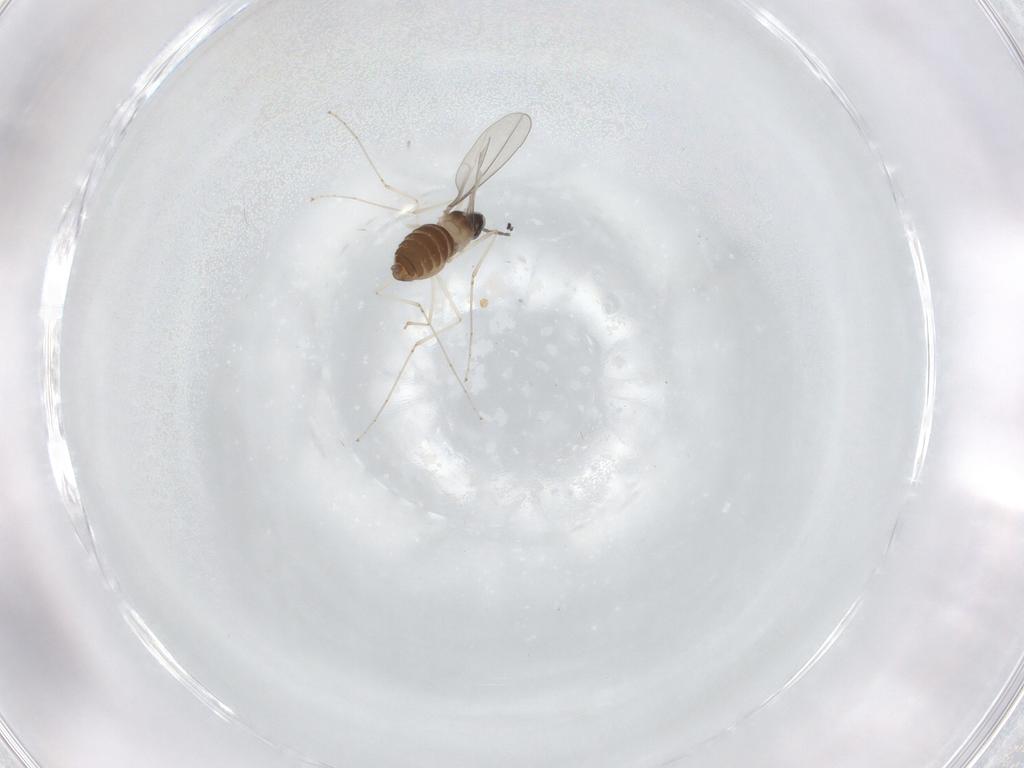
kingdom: Animalia
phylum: Arthropoda
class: Insecta
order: Diptera
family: Cecidomyiidae
